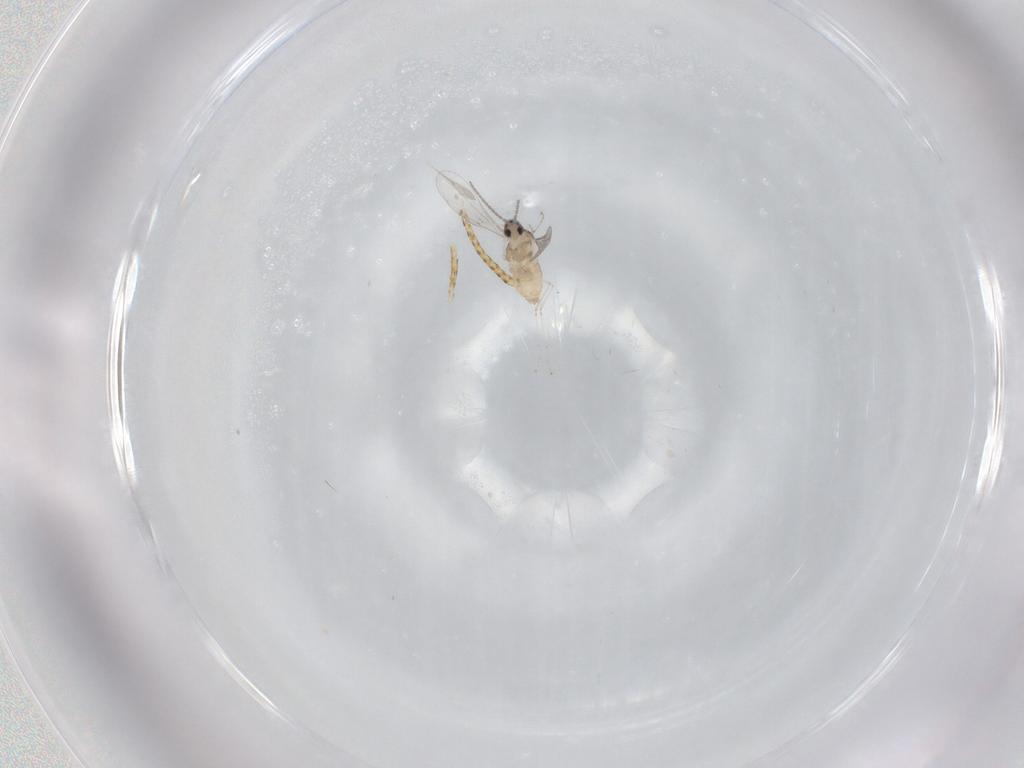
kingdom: Animalia
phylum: Arthropoda
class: Insecta
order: Diptera
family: Cecidomyiidae
